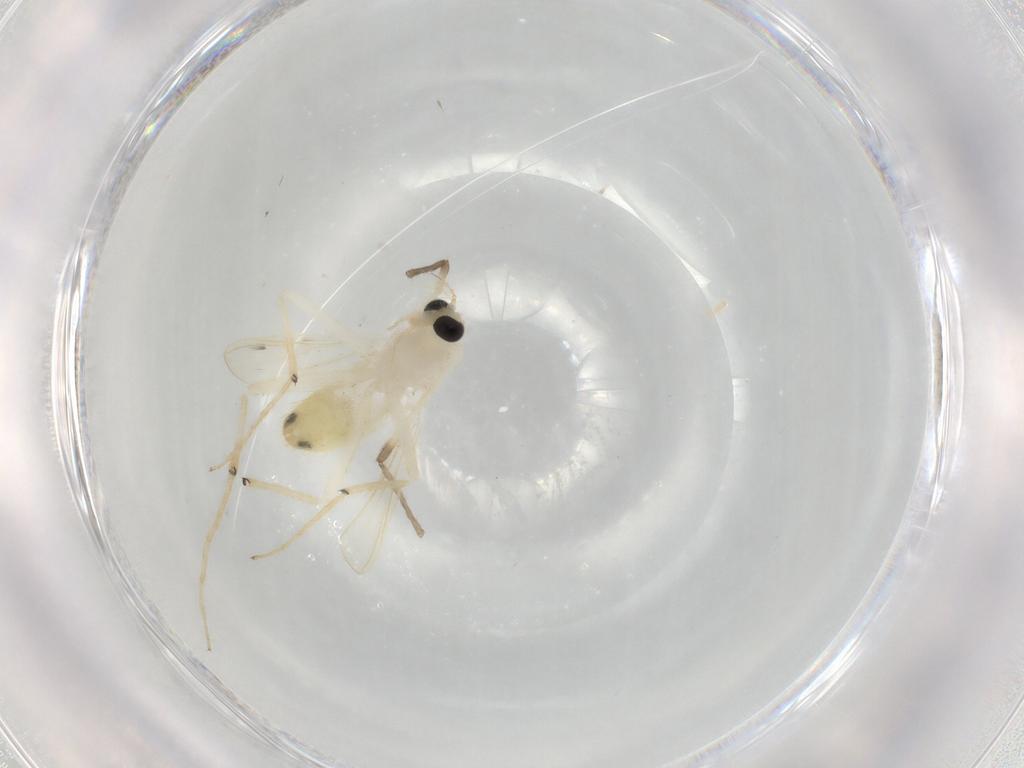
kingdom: Animalia
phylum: Arthropoda
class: Insecta
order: Diptera
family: Chironomidae
